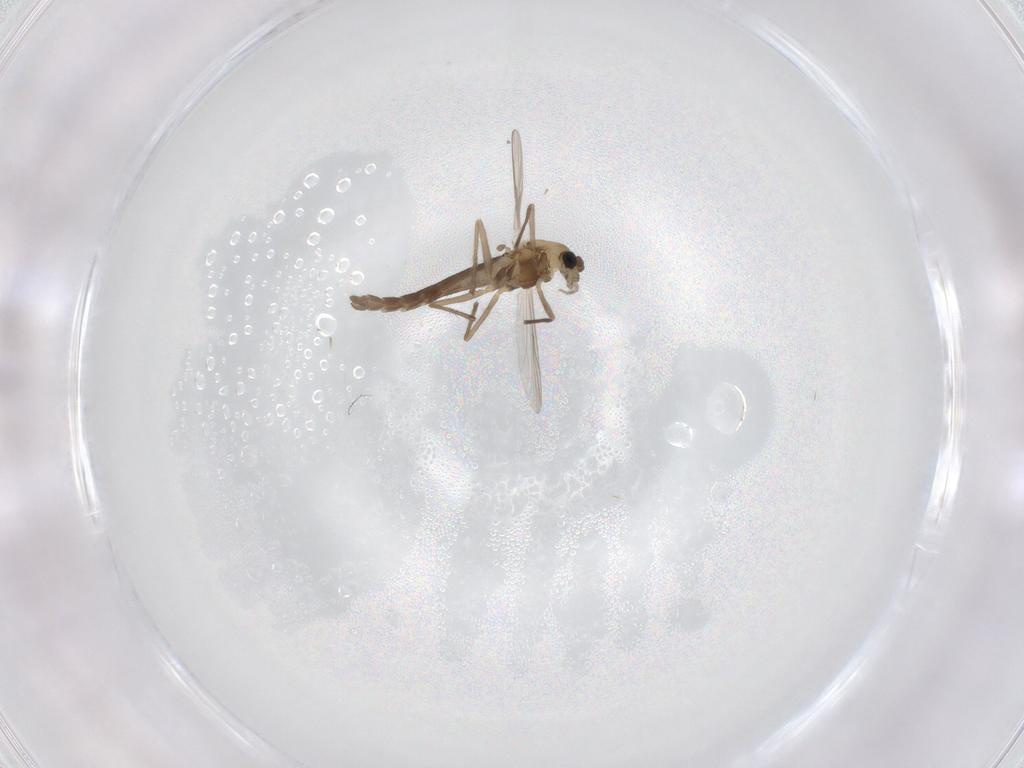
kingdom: Animalia
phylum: Arthropoda
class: Insecta
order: Diptera
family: Chironomidae
